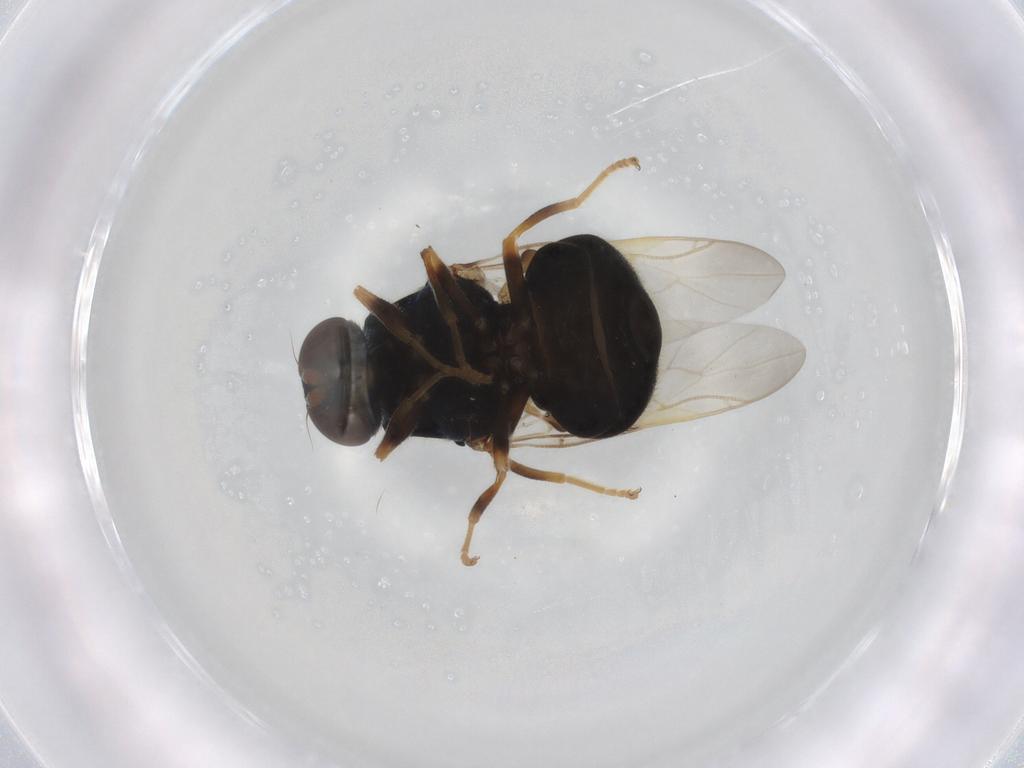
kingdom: Animalia
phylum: Arthropoda
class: Insecta
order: Diptera
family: Stratiomyidae
